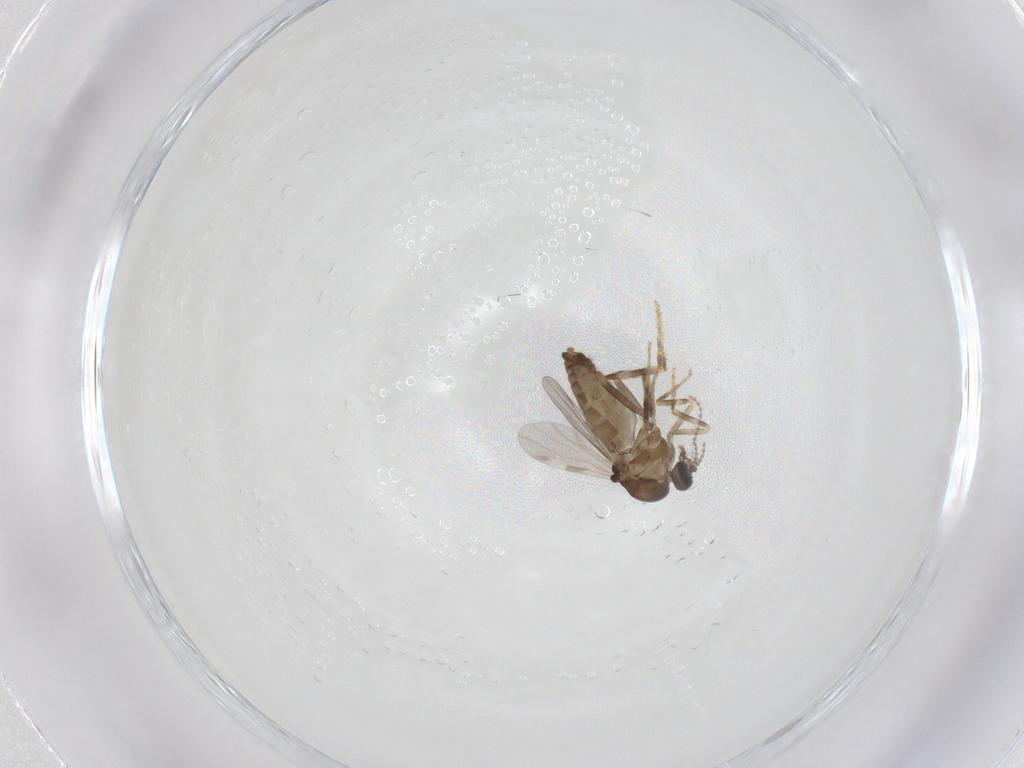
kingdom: Animalia
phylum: Arthropoda
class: Insecta
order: Diptera
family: Ceratopogonidae
